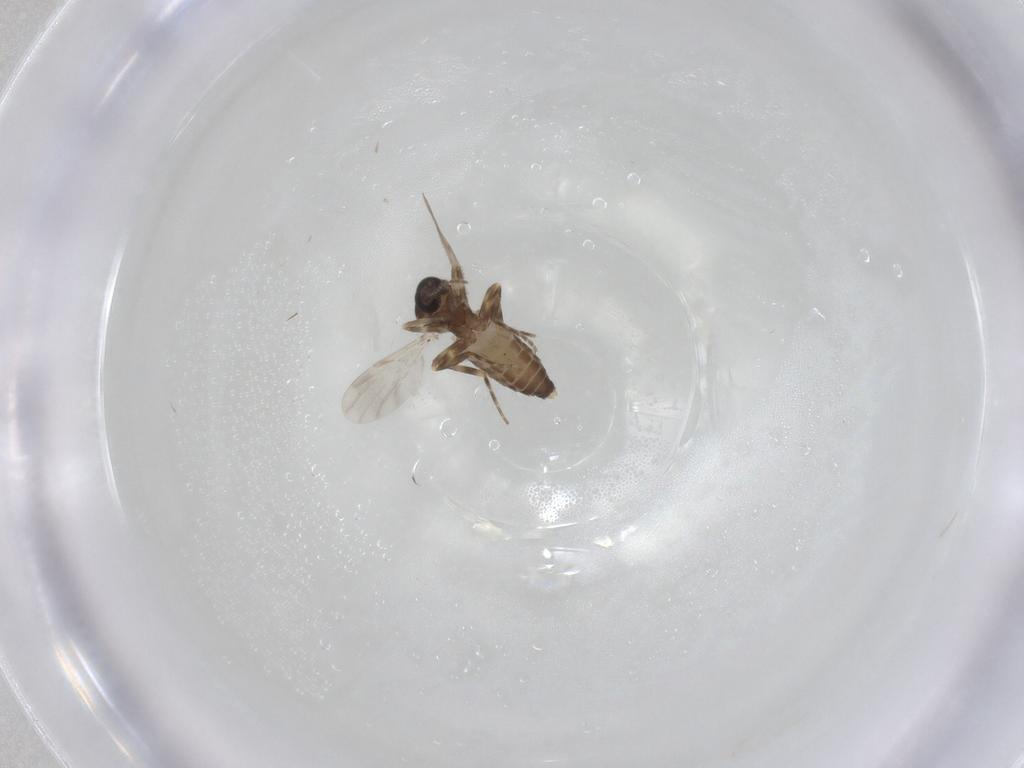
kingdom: Animalia
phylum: Arthropoda
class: Insecta
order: Diptera
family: Ceratopogonidae
